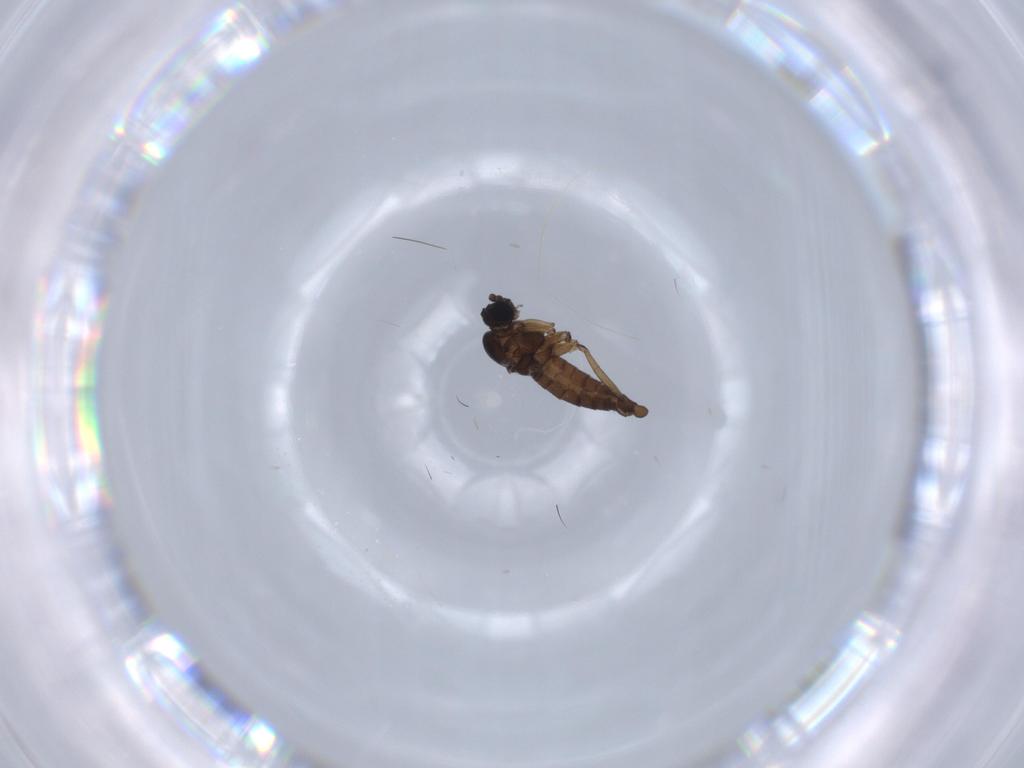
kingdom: Animalia
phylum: Arthropoda
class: Insecta
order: Diptera
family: Sciaridae
